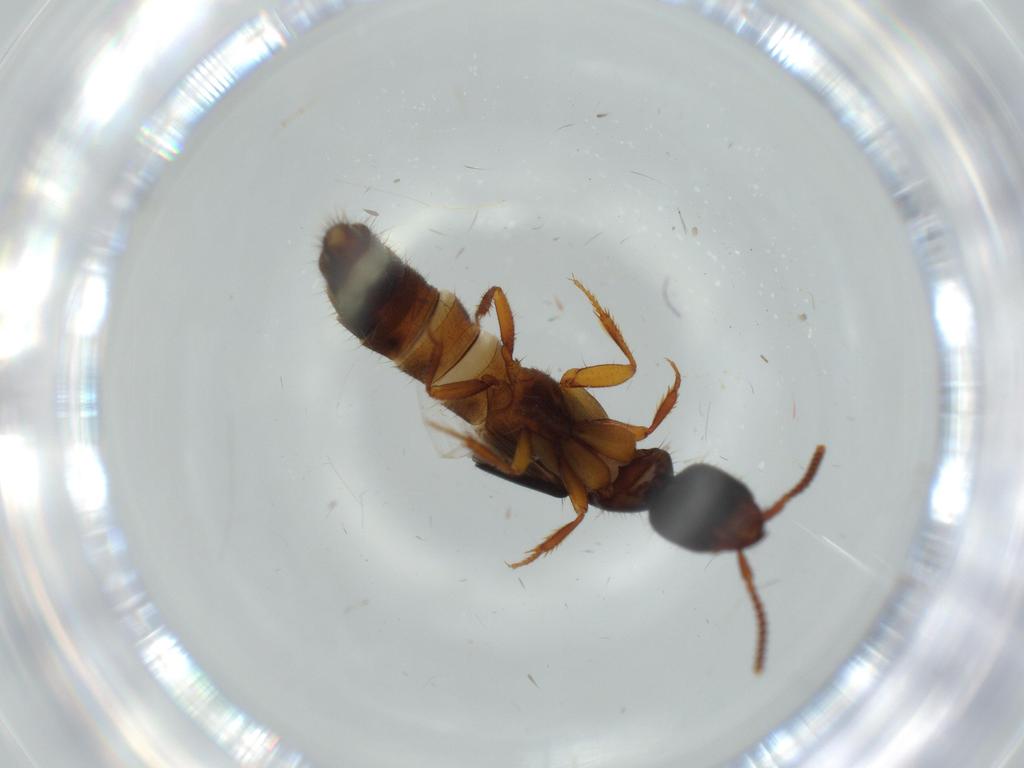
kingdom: Animalia
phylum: Arthropoda
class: Insecta
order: Coleoptera
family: Staphylinidae
